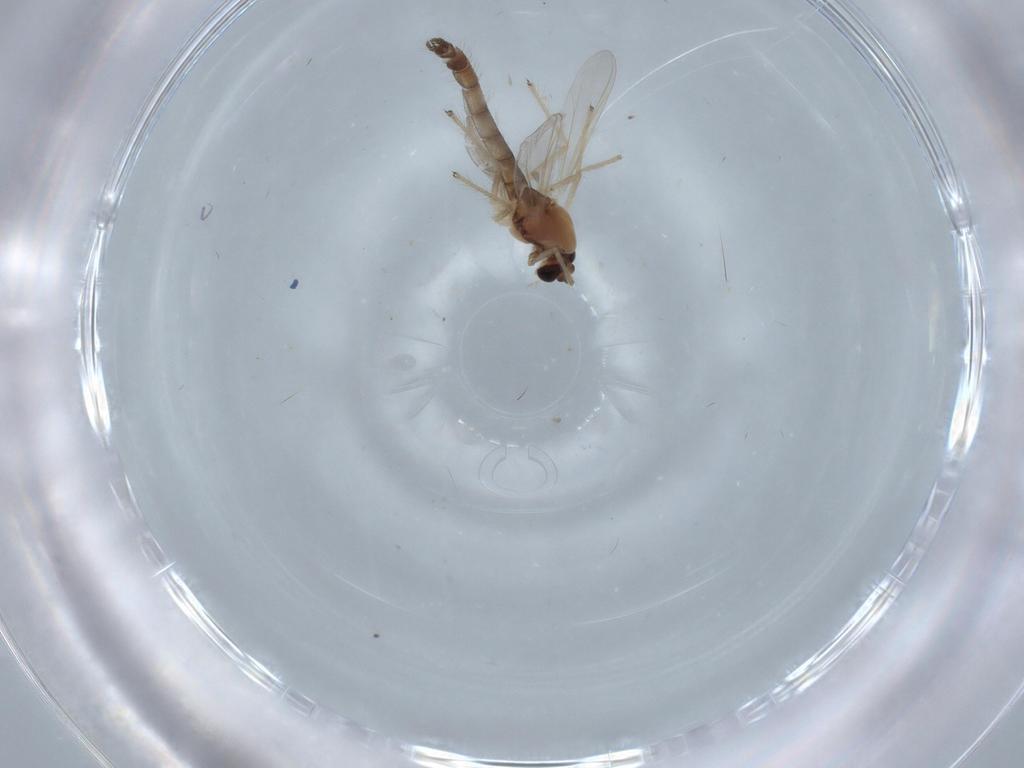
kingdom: Animalia
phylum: Arthropoda
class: Insecta
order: Diptera
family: Chironomidae
